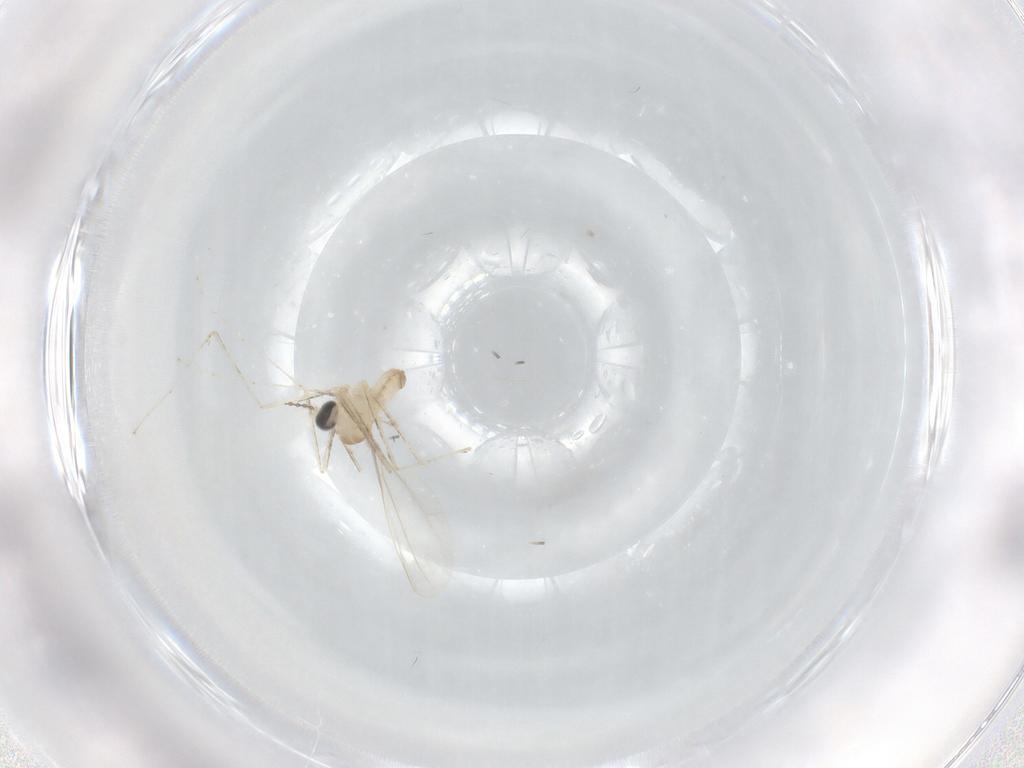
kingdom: Animalia
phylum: Arthropoda
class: Insecta
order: Diptera
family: Cecidomyiidae
